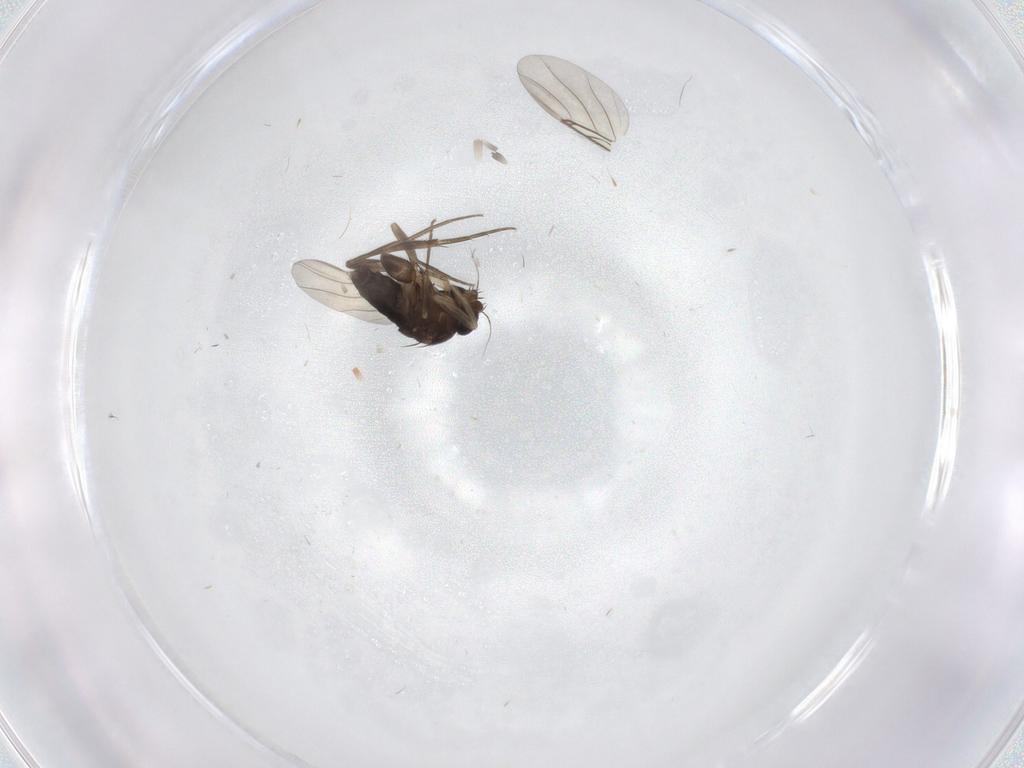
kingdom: Animalia
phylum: Arthropoda
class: Insecta
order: Diptera
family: Phoridae
